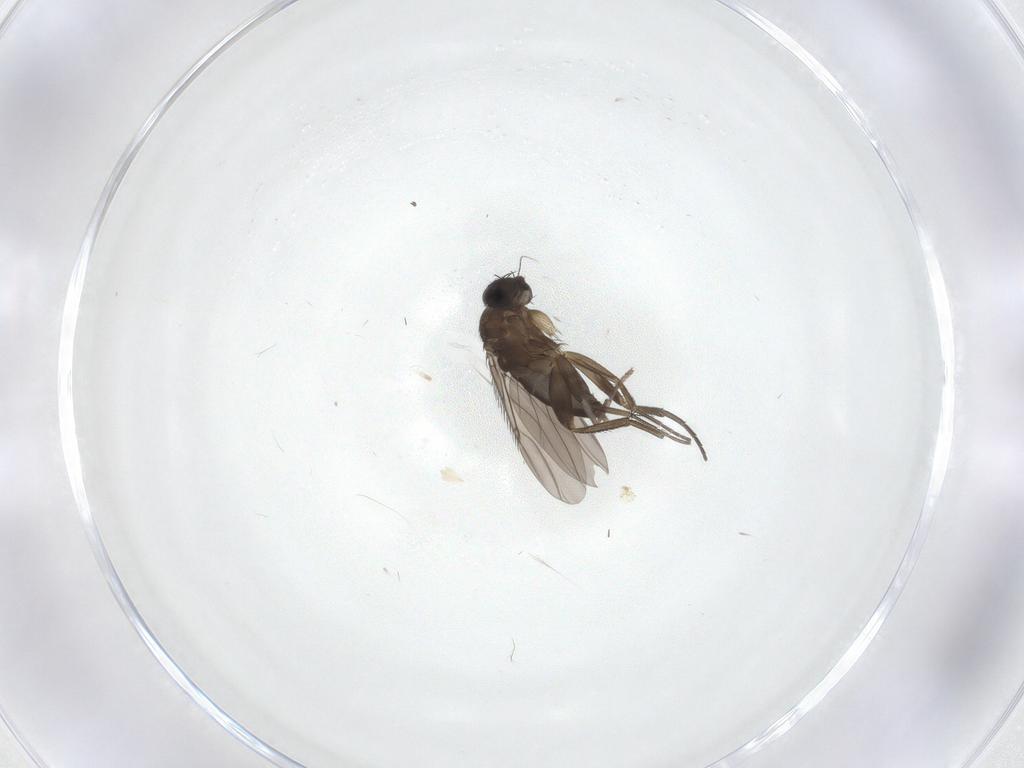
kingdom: Animalia
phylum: Arthropoda
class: Insecta
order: Diptera
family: Phoridae
